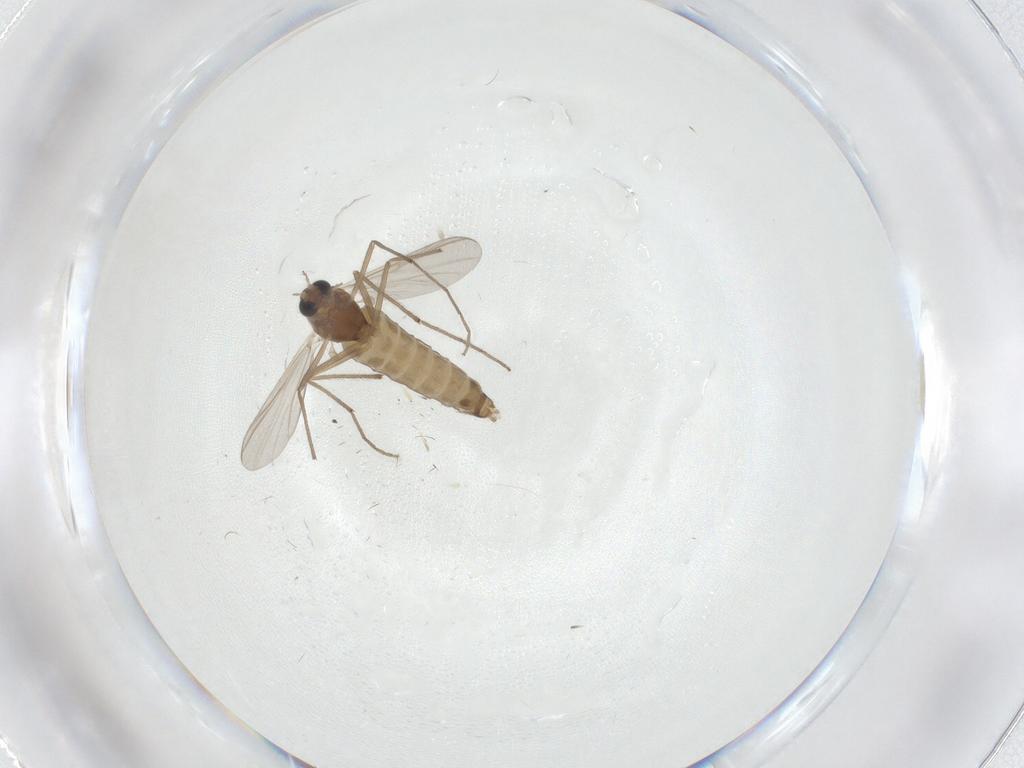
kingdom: Animalia
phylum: Arthropoda
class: Insecta
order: Diptera
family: Chironomidae
